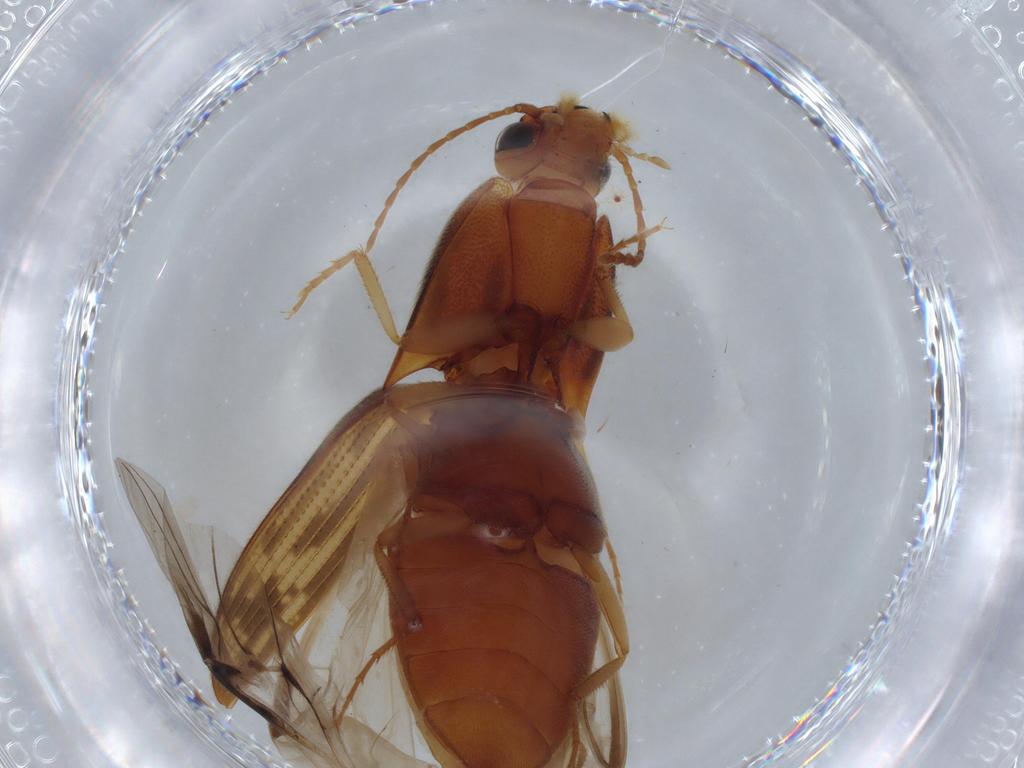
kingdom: Animalia
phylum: Arthropoda
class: Insecta
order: Coleoptera
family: Elateridae
